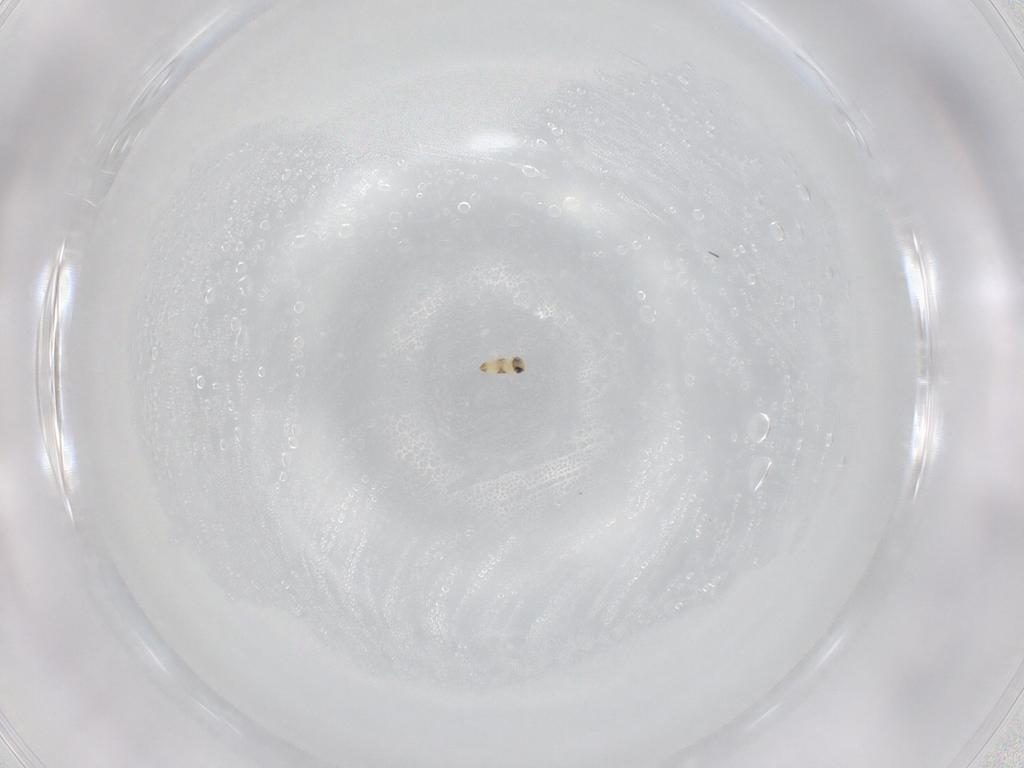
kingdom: Animalia
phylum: Arthropoda
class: Insecta
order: Hymenoptera
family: Trichogrammatidae
